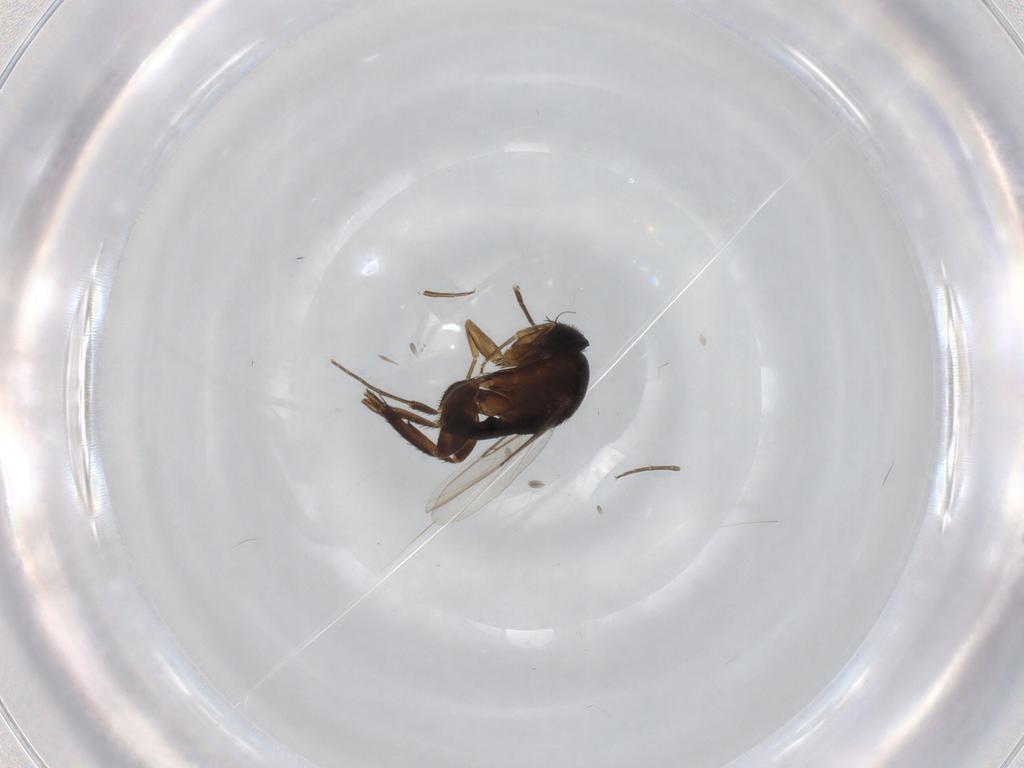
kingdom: Animalia
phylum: Arthropoda
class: Insecta
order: Diptera
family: Phoridae
